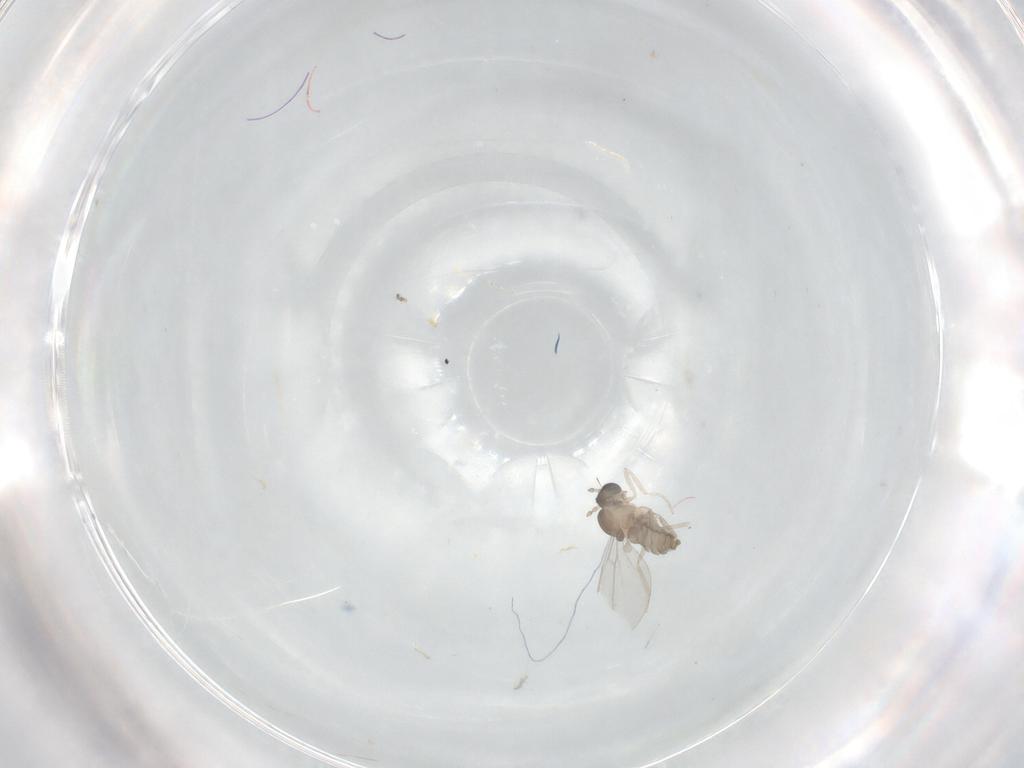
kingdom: Animalia
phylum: Arthropoda
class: Insecta
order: Diptera
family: Cecidomyiidae
